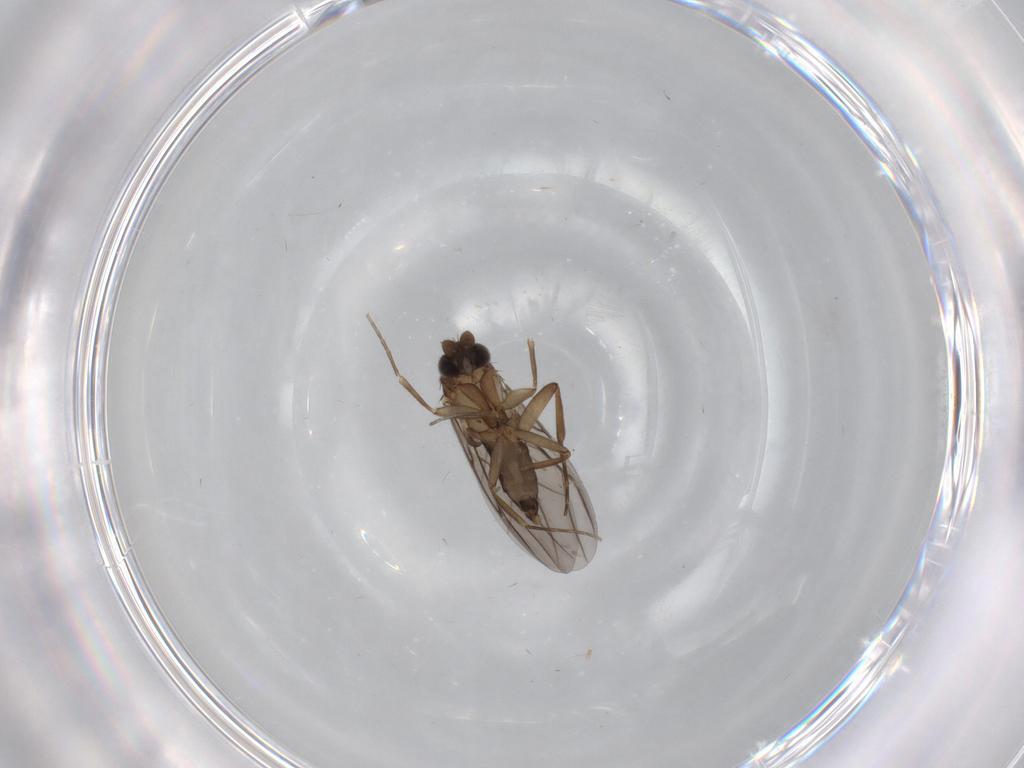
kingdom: Animalia
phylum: Arthropoda
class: Insecta
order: Diptera
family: Phoridae
